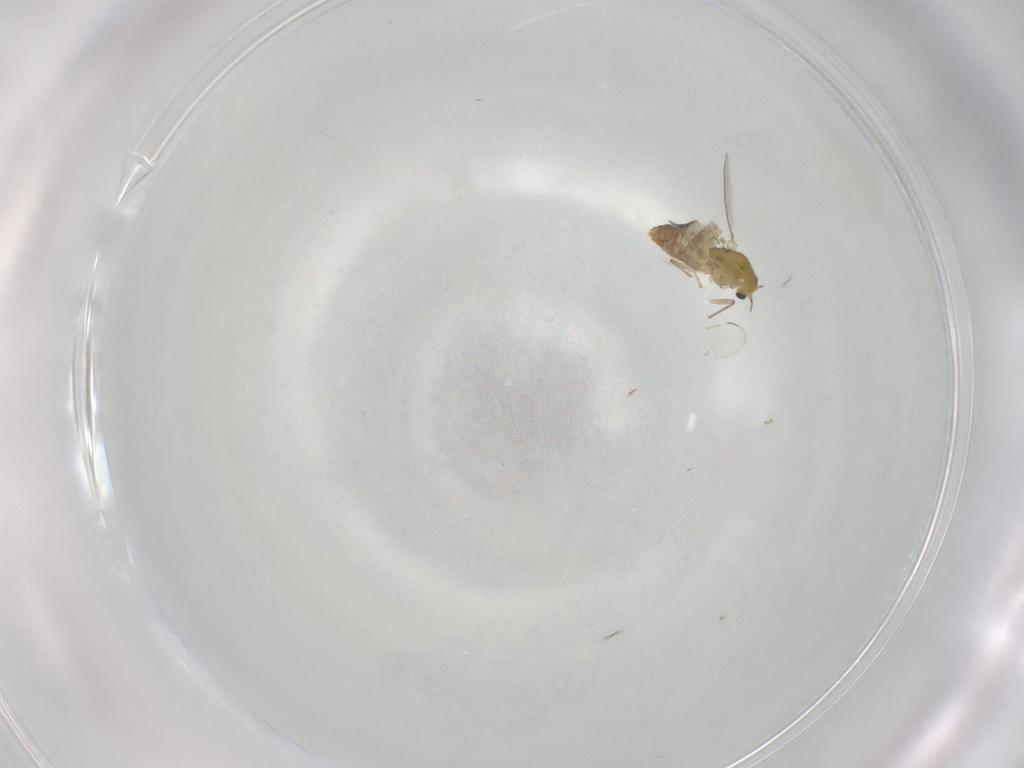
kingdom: Animalia
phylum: Arthropoda
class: Insecta
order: Diptera
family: Chironomidae
